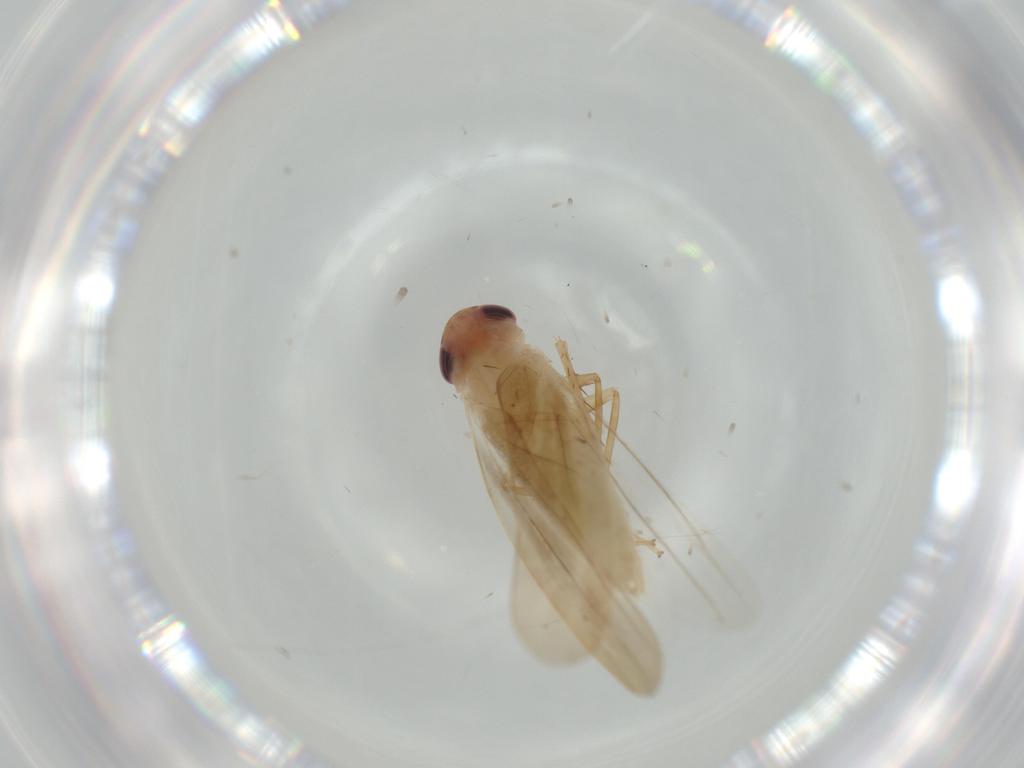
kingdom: Animalia
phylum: Arthropoda
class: Insecta
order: Hemiptera
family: Cicadellidae
